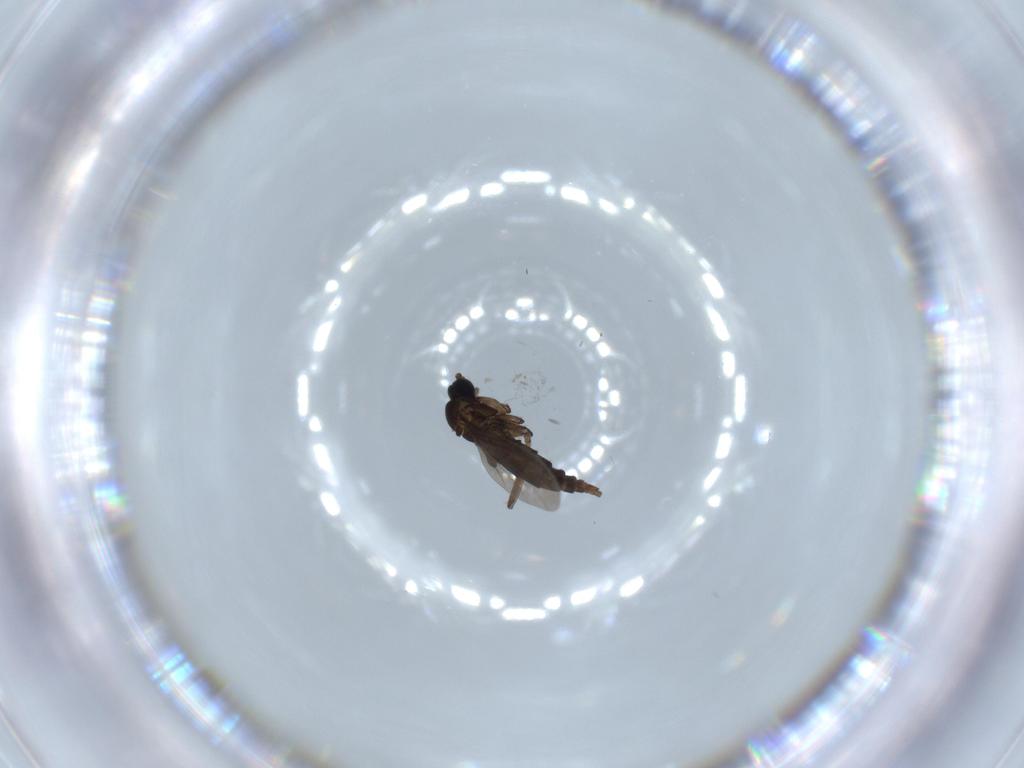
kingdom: Animalia
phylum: Arthropoda
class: Insecta
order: Diptera
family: Sciaridae
